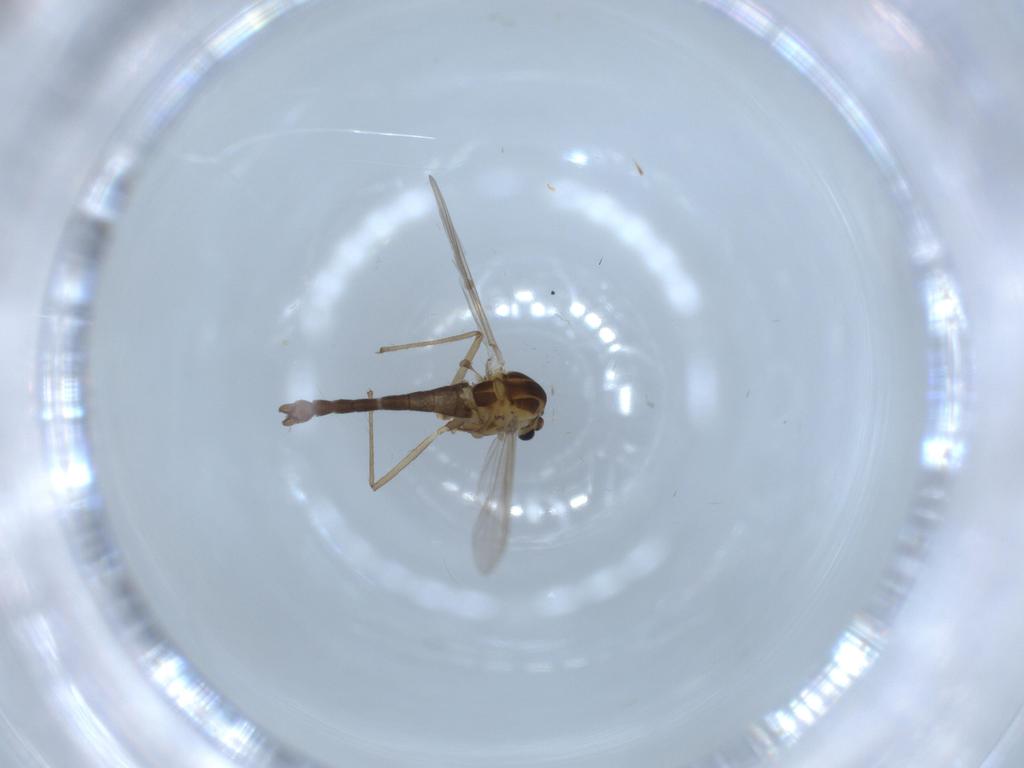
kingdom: Animalia
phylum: Arthropoda
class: Insecta
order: Diptera
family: Chironomidae
